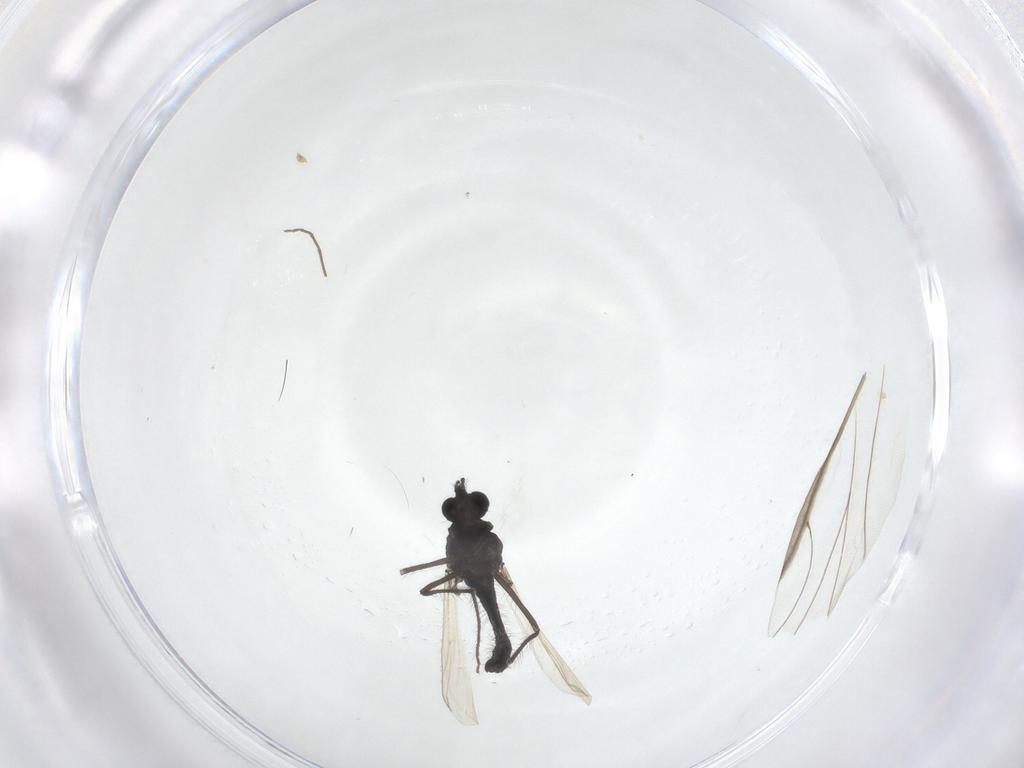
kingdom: Animalia
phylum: Arthropoda
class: Insecta
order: Diptera
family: Chironomidae
